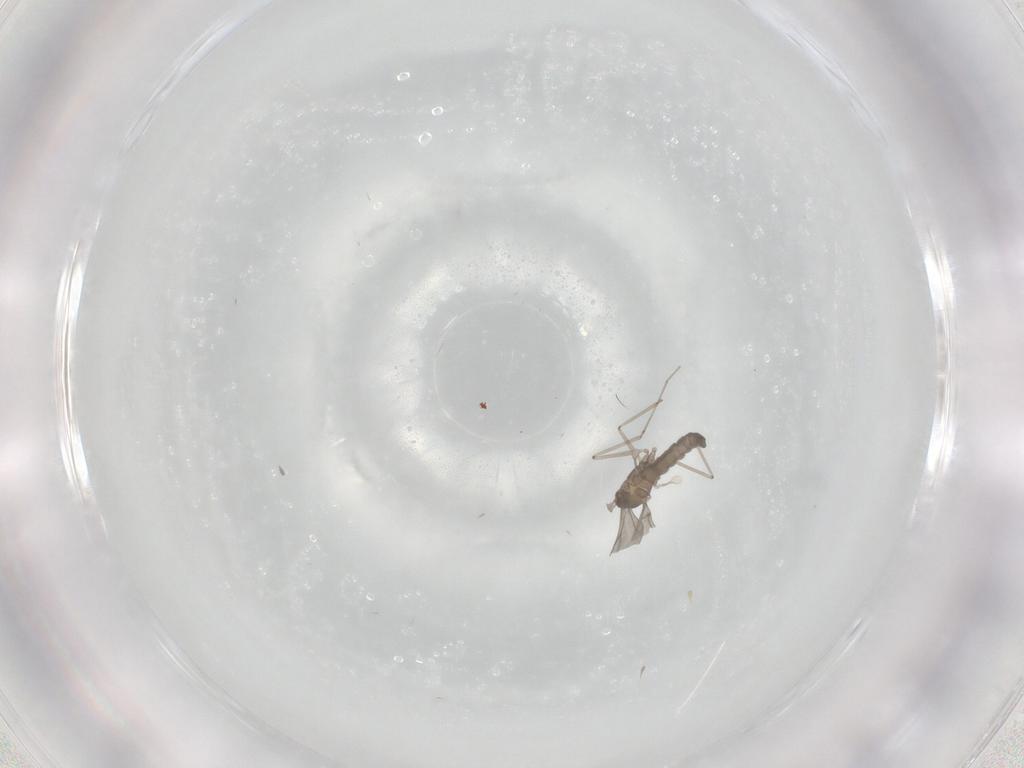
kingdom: Animalia
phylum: Arthropoda
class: Insecta
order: Diptera
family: Cecidomyiidae
